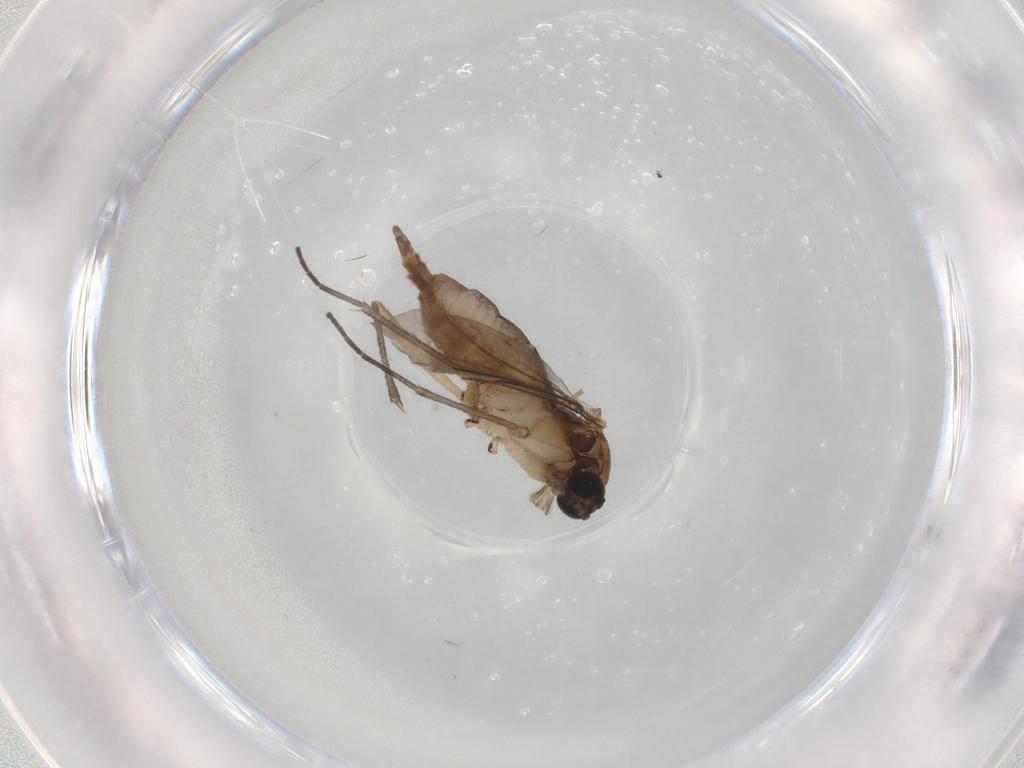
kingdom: Animalia
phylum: Arthropoda
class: Insecta
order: Diptera
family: Sciaridae
